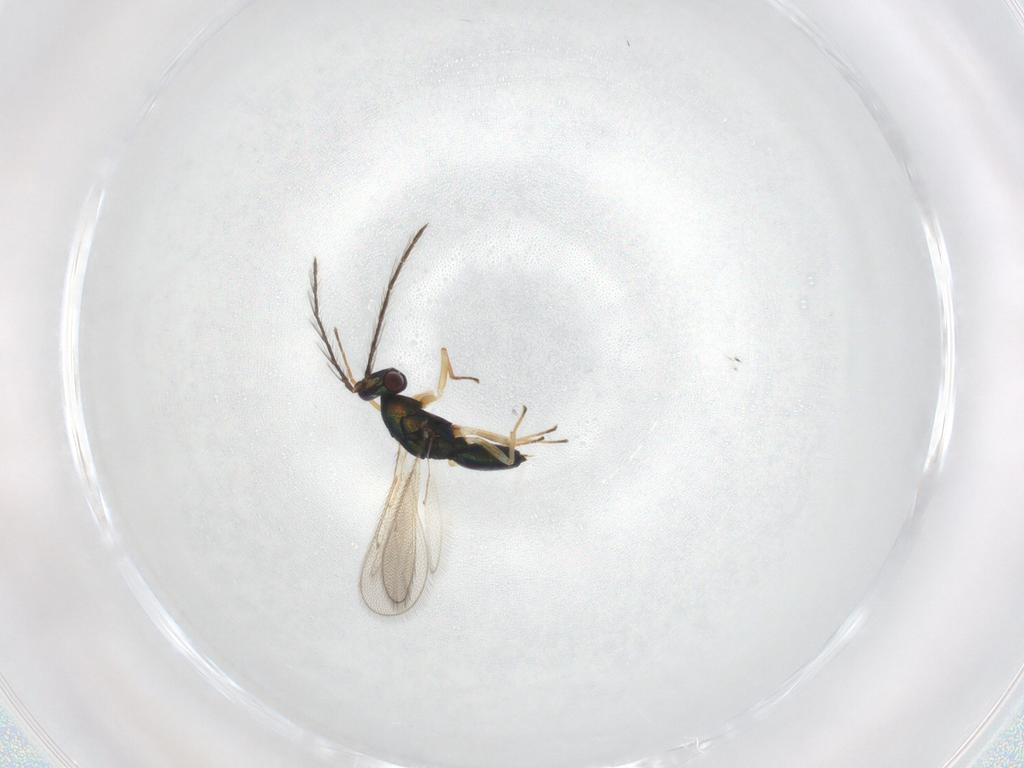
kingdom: Animalia
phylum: Arthropoda
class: Insecta
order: Hymenoptera
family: Eulophidae
